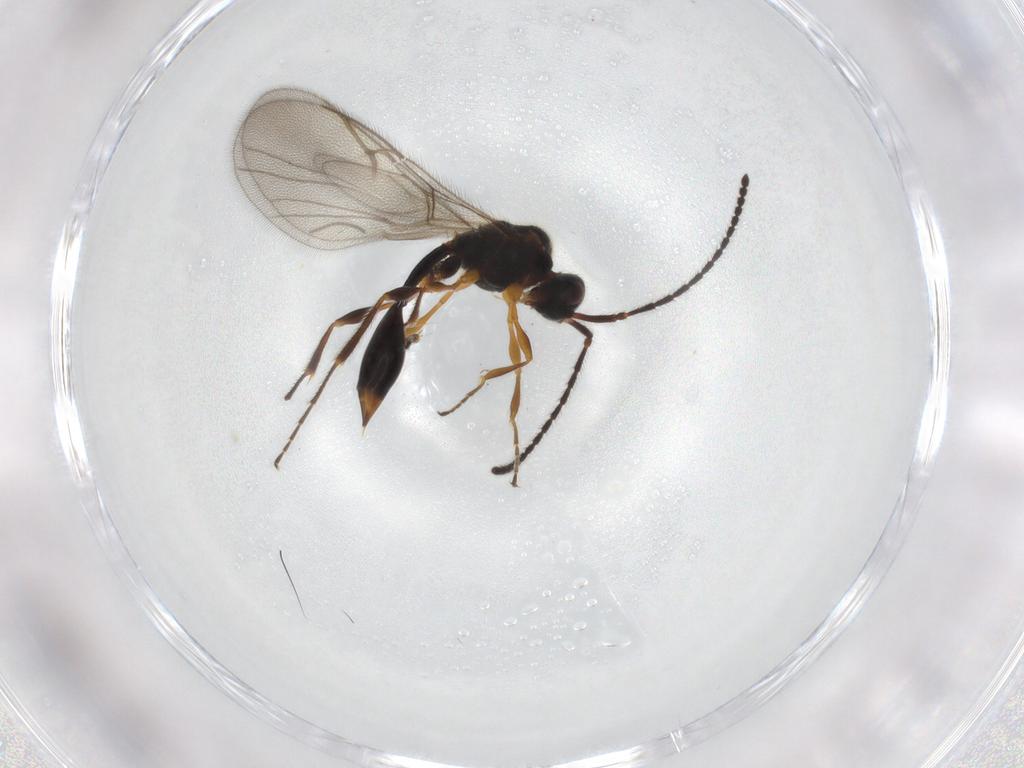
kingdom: Animalia
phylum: Arthropoda
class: Insecta
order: Hymenoptera
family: Diapriidae
